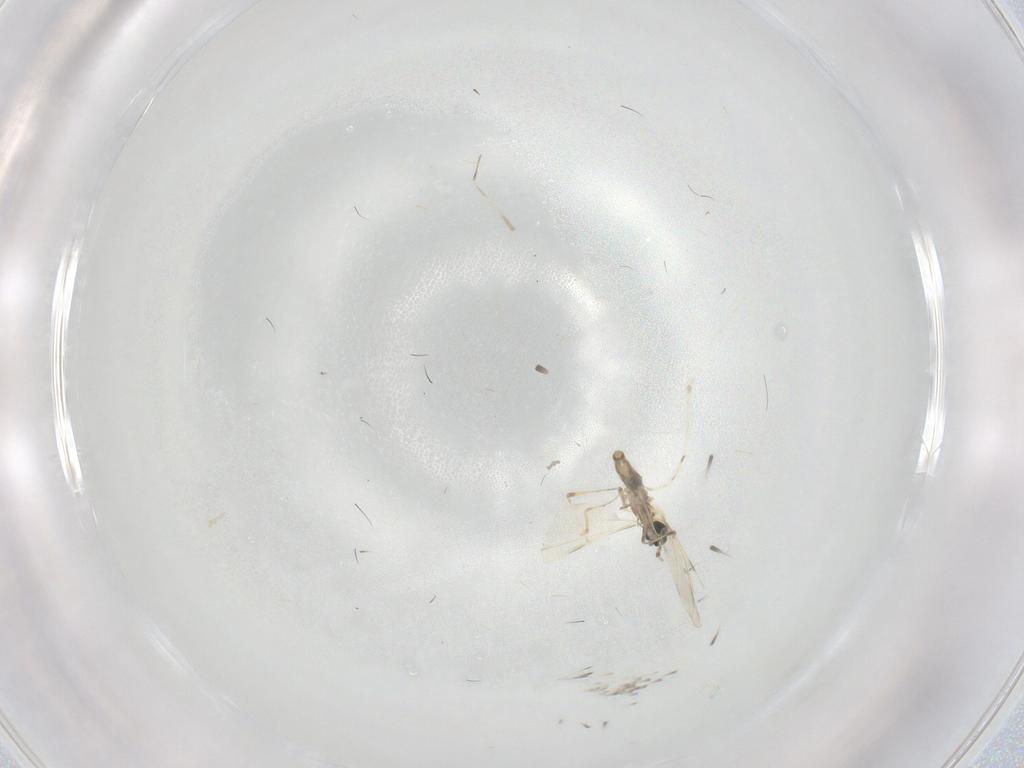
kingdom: Animalia
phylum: Arthropoda
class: Insecta
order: Diptera
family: Cecidomyiidae
